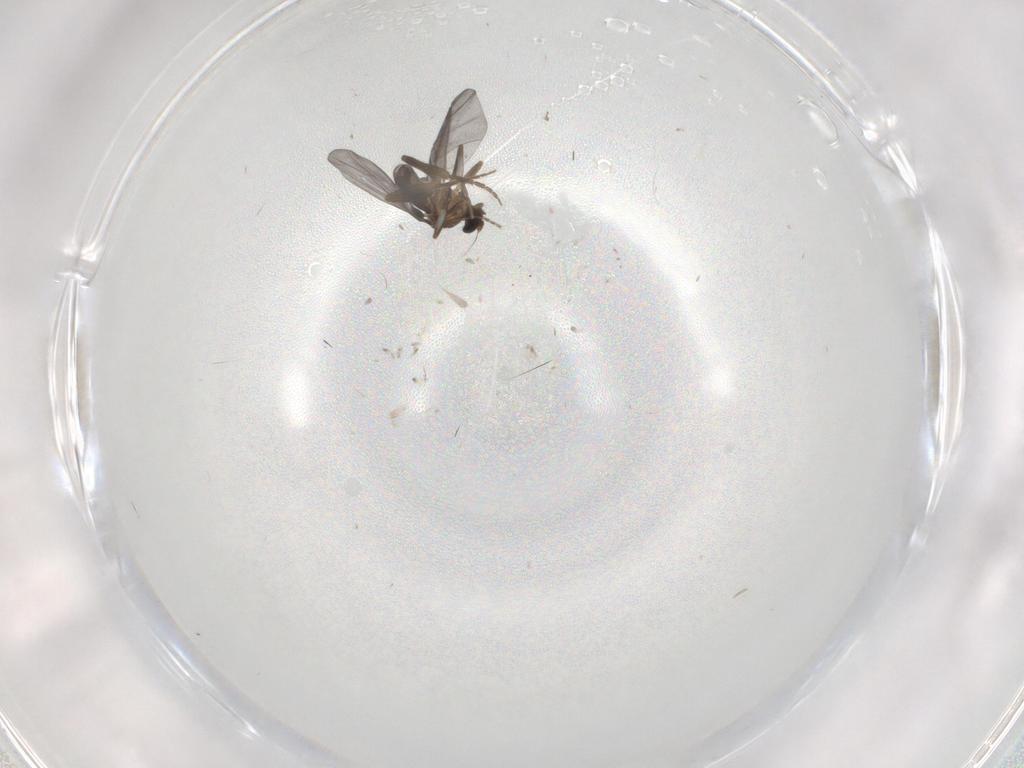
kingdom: Animalia
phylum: Arthropoda
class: Insecta
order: Diptera
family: Phoridae
